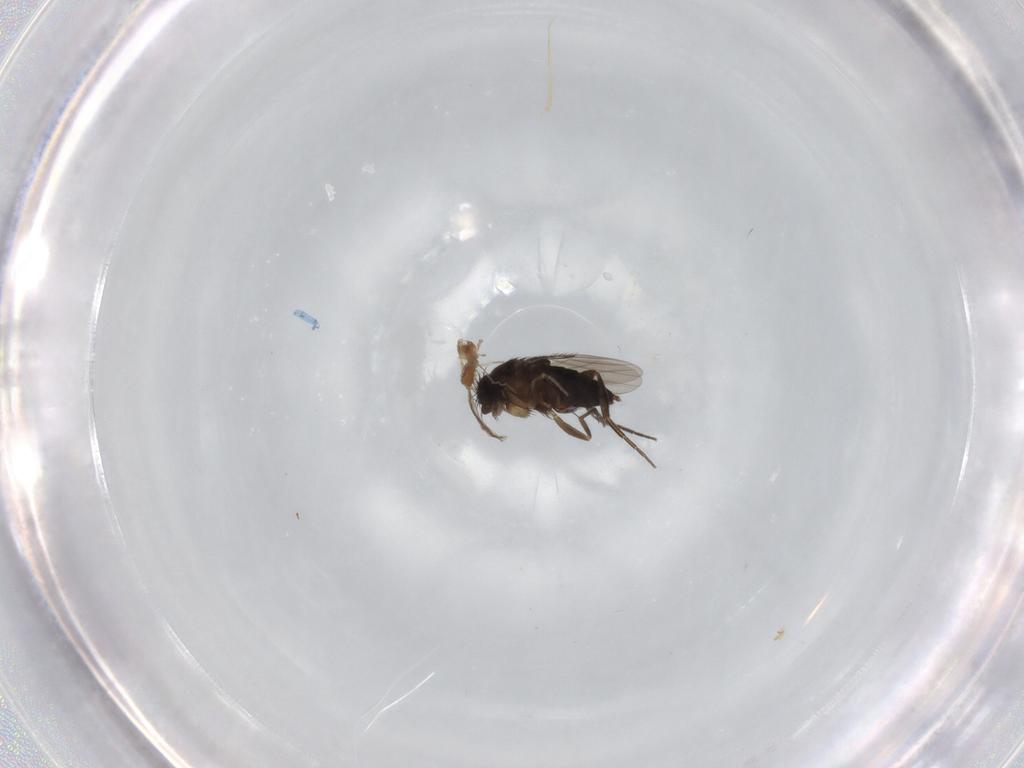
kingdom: Animalia
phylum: Arthropoda
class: Insecta
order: Diptera
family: Phoridae
